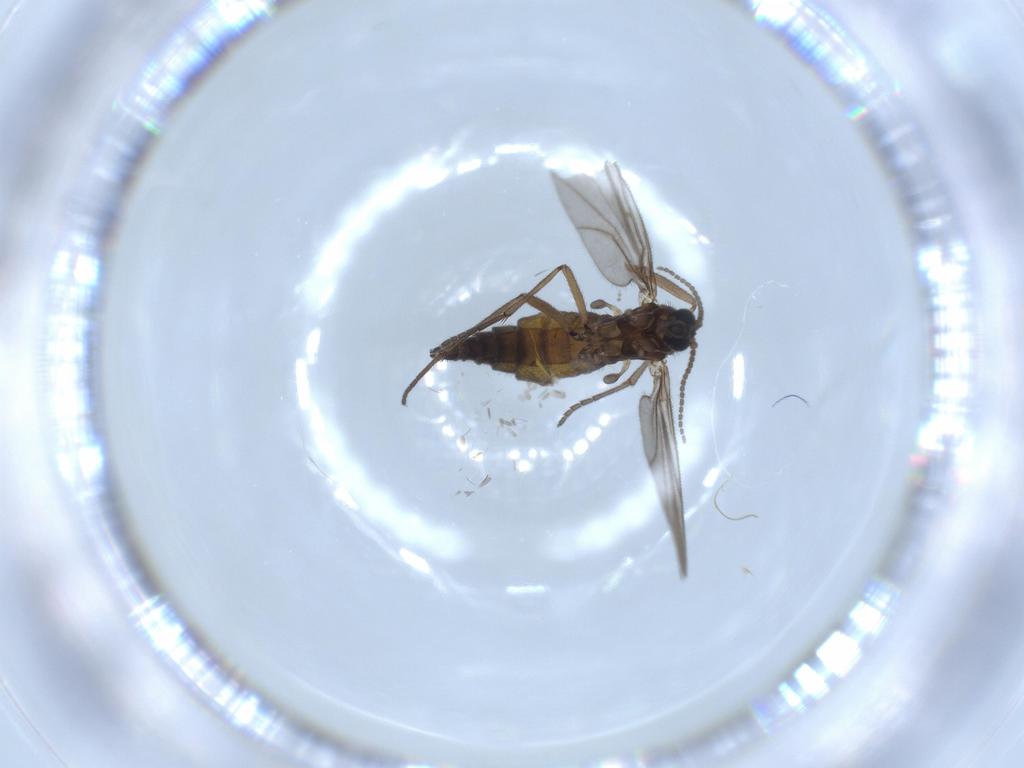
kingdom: Animalia
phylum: Arthropoda
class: Insecta
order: Diptera
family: Sciaridae
